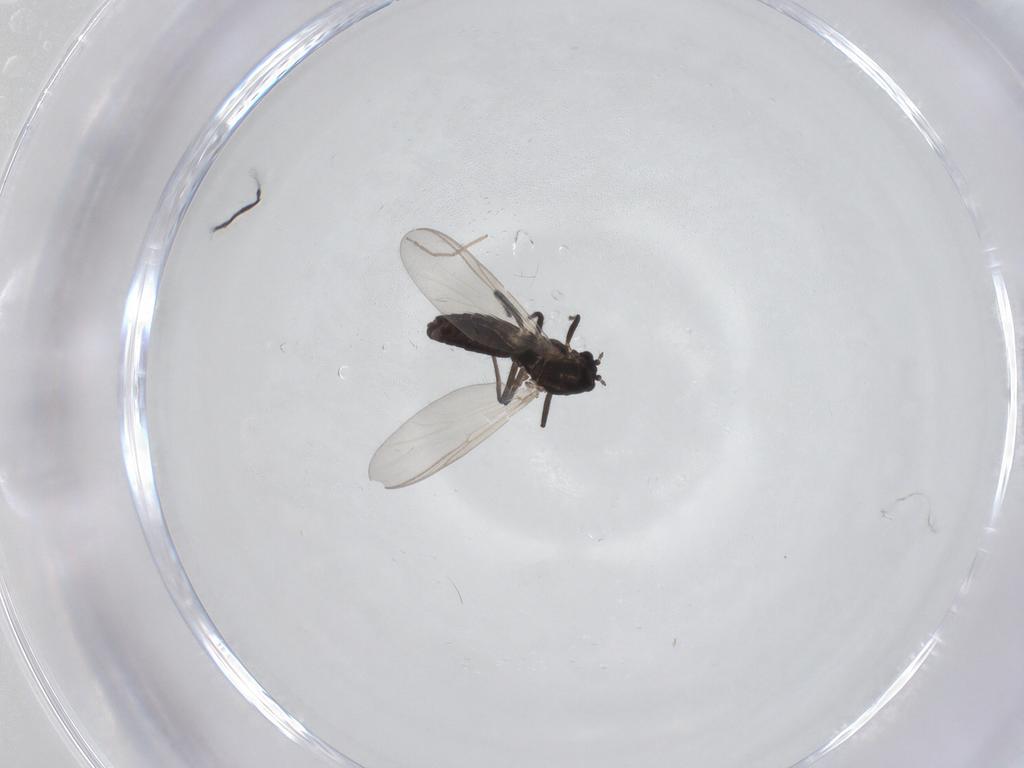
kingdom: Animalia
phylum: Arthropoda
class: Insecta
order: Diptera
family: Chironomidae
